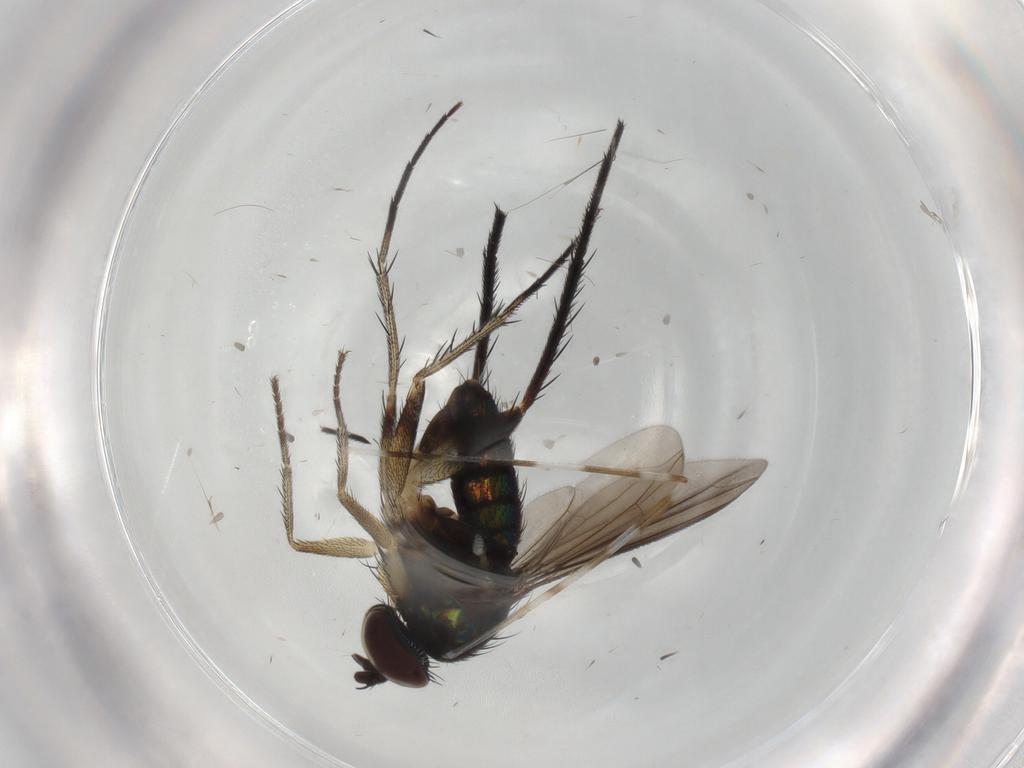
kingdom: Animalia
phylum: Arthropoda
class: Insecta
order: Diptera
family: Dolichopodidae
